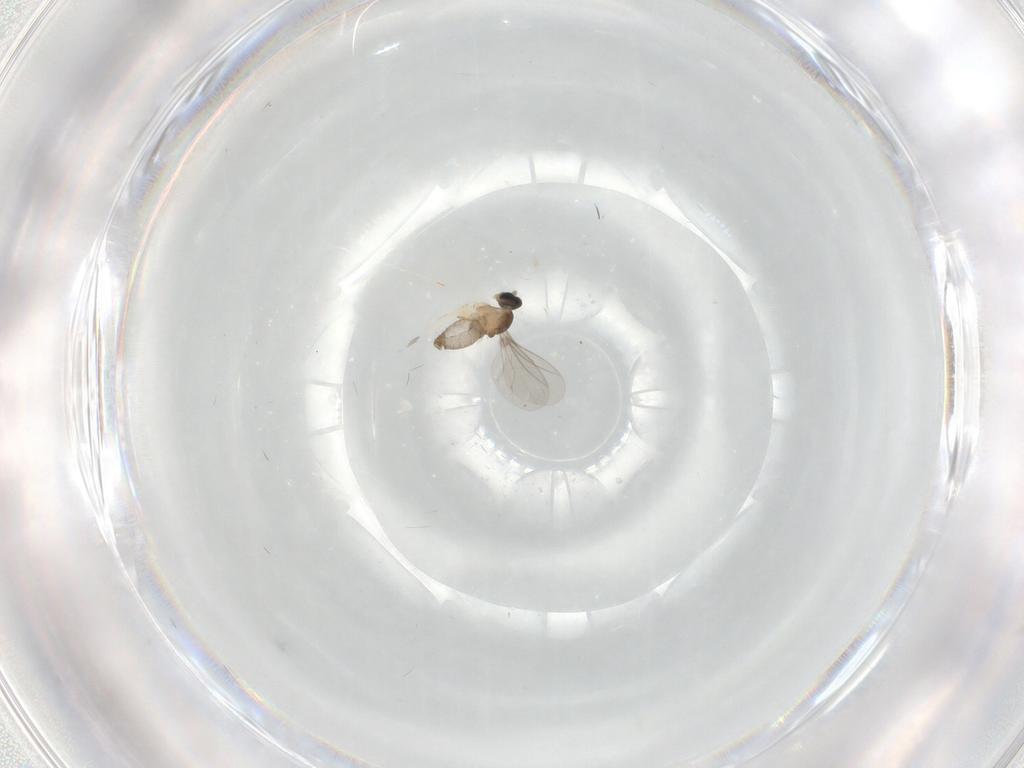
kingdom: Animalia
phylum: Arthropoda
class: Insecta
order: Diptera
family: Cecidomyiidae
